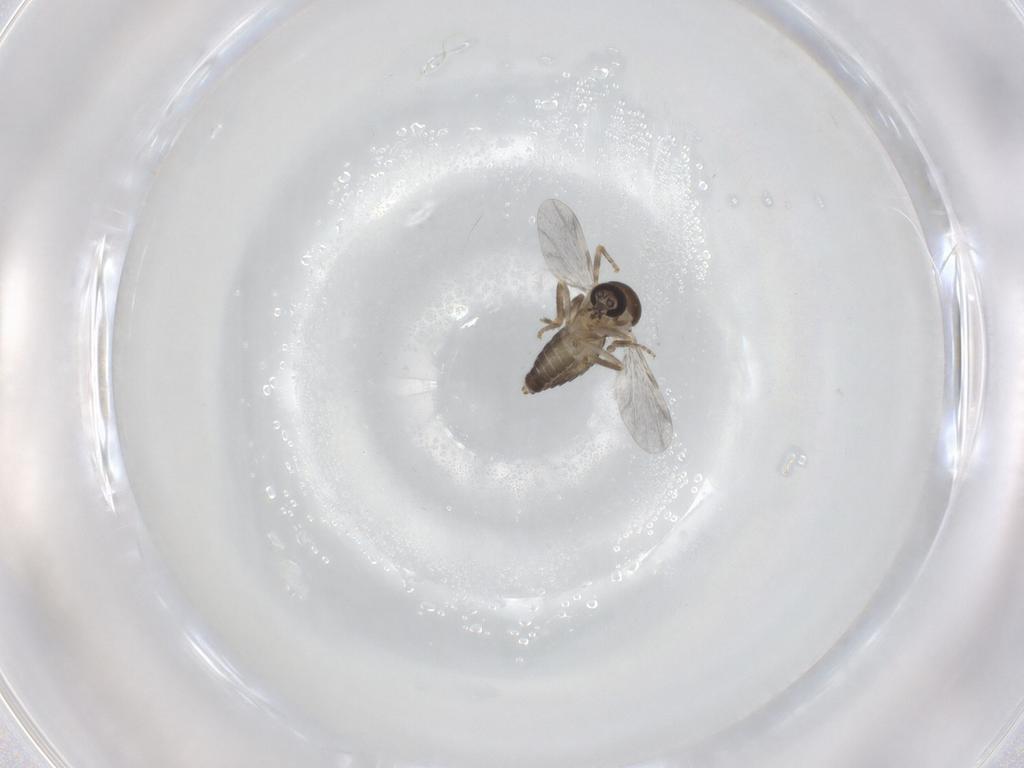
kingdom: Animalia
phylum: Arthropoda
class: Insecta
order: Diptera
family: Ceratopogonidae
